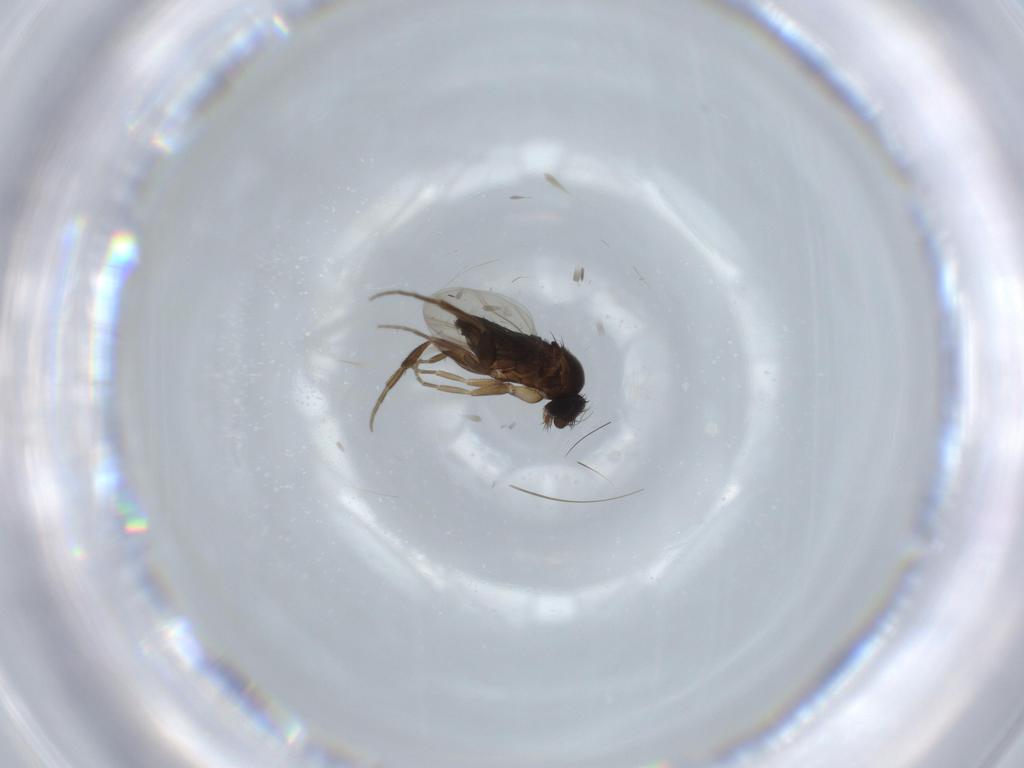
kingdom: Animalia
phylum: Arthropoda
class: Insecta
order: Diptera
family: Phoridae
